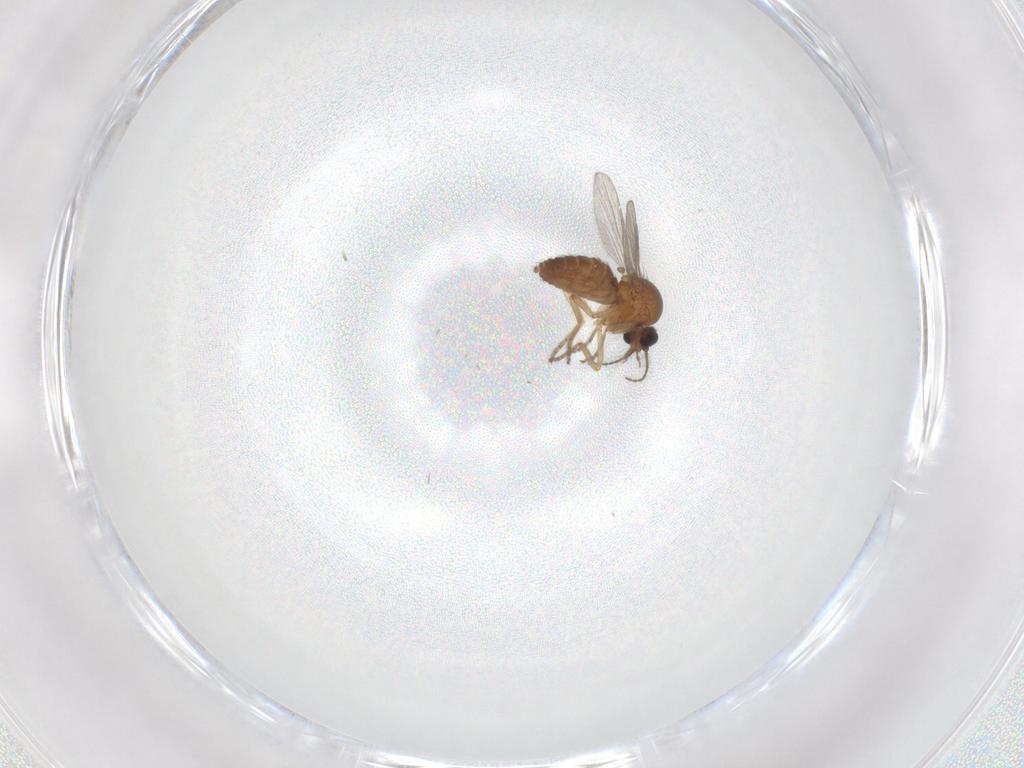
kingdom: Animalia
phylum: Arthropoda
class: Insecta
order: Diptera
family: Ceratopogonidae
